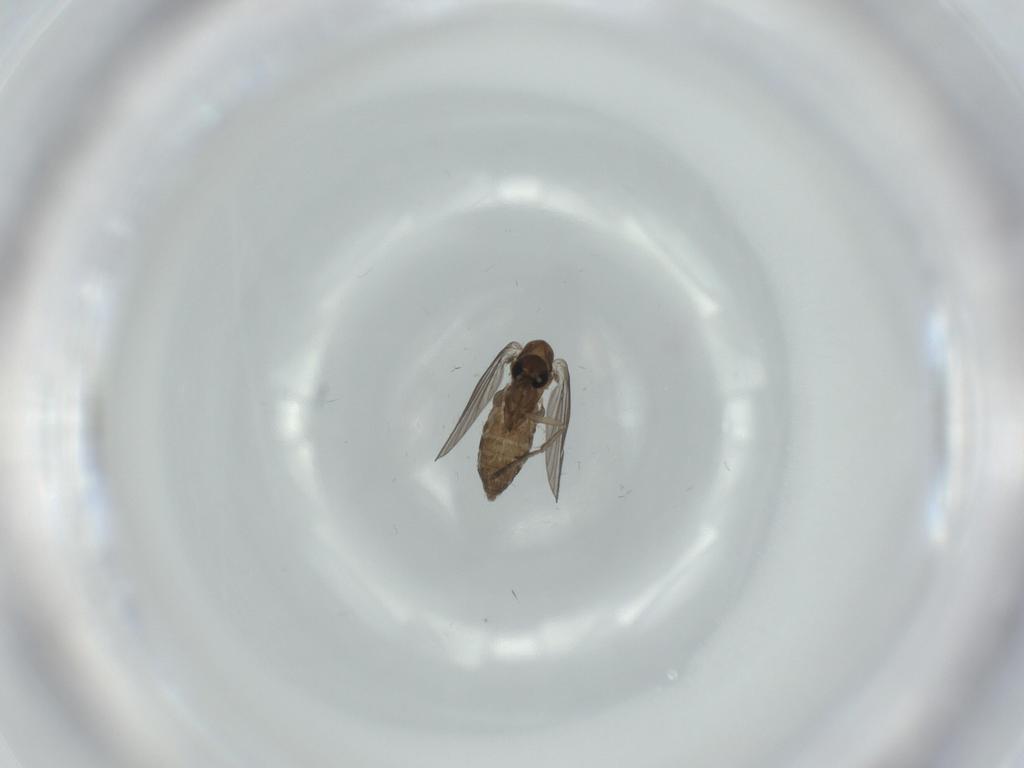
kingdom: Animalia
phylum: Arthropoda
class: Insecta
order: Diptera
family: Psychodidae
